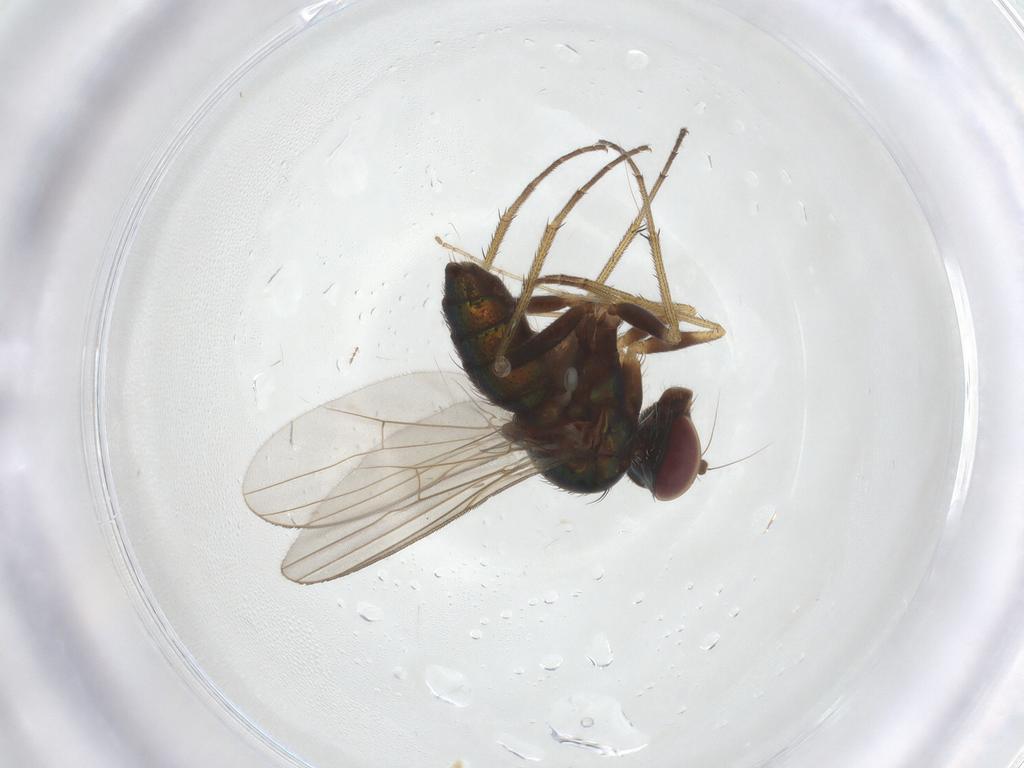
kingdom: Animalia
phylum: Arthropoda
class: Insecta
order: Diptera
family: Dolichopodidae
